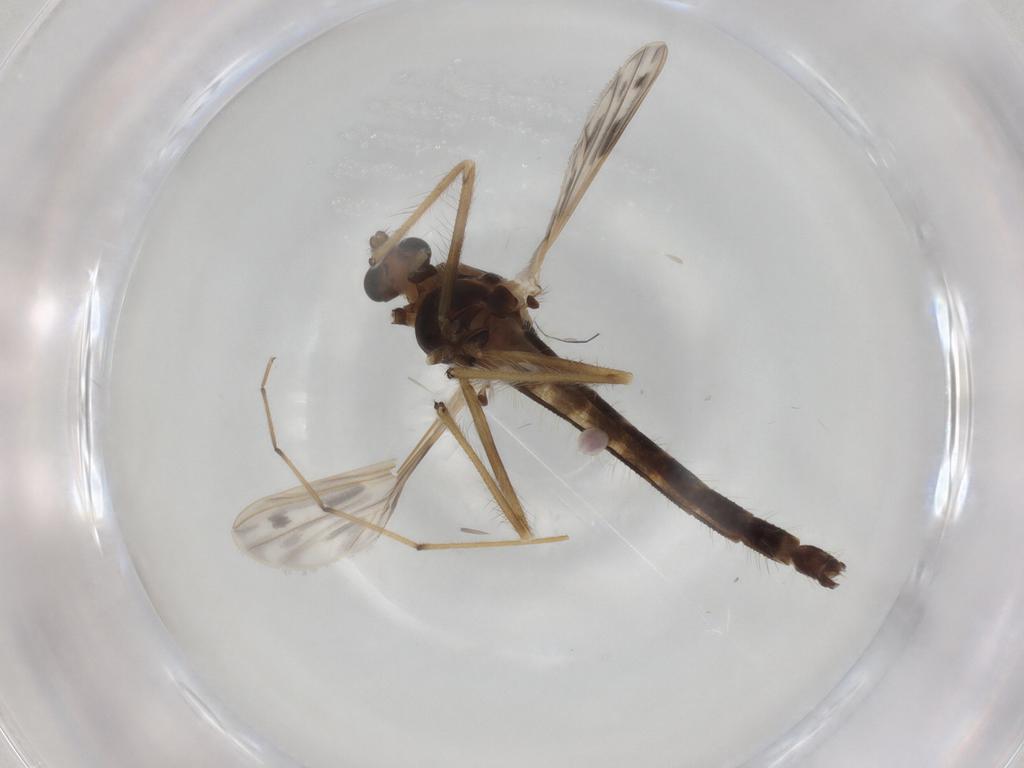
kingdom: Animalia
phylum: Arthropoda
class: Insecta
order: Diptera
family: Chironomidae
